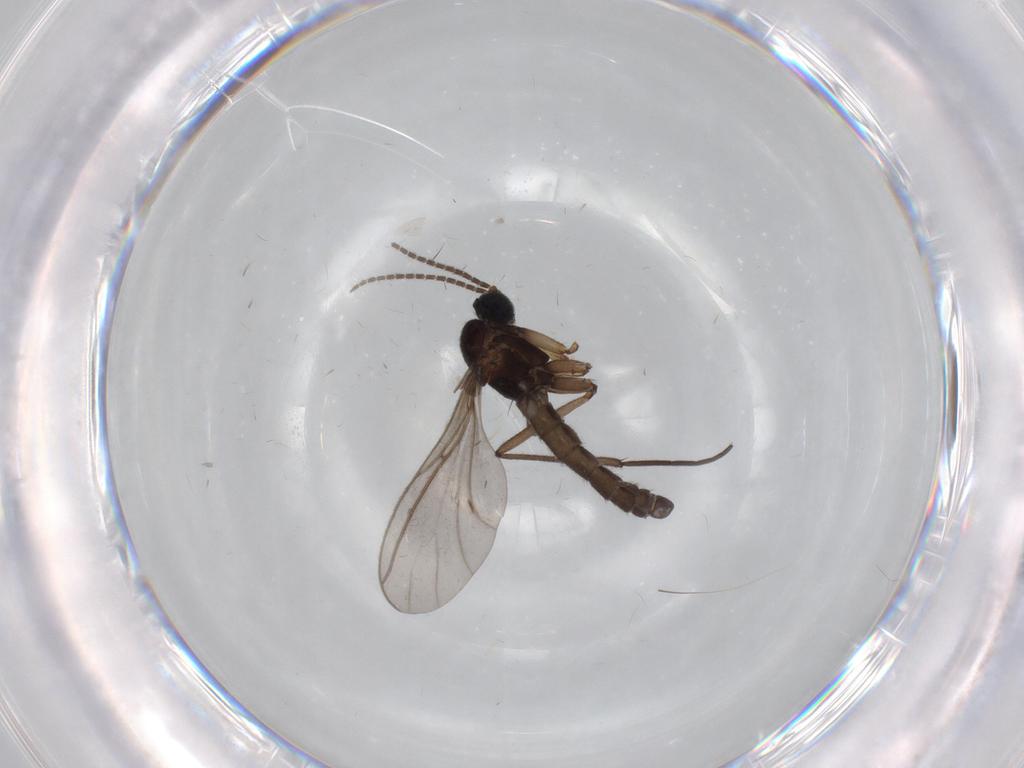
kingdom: Animalia
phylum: Arthropoda
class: Insecta
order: Diptera
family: Sciaridae
